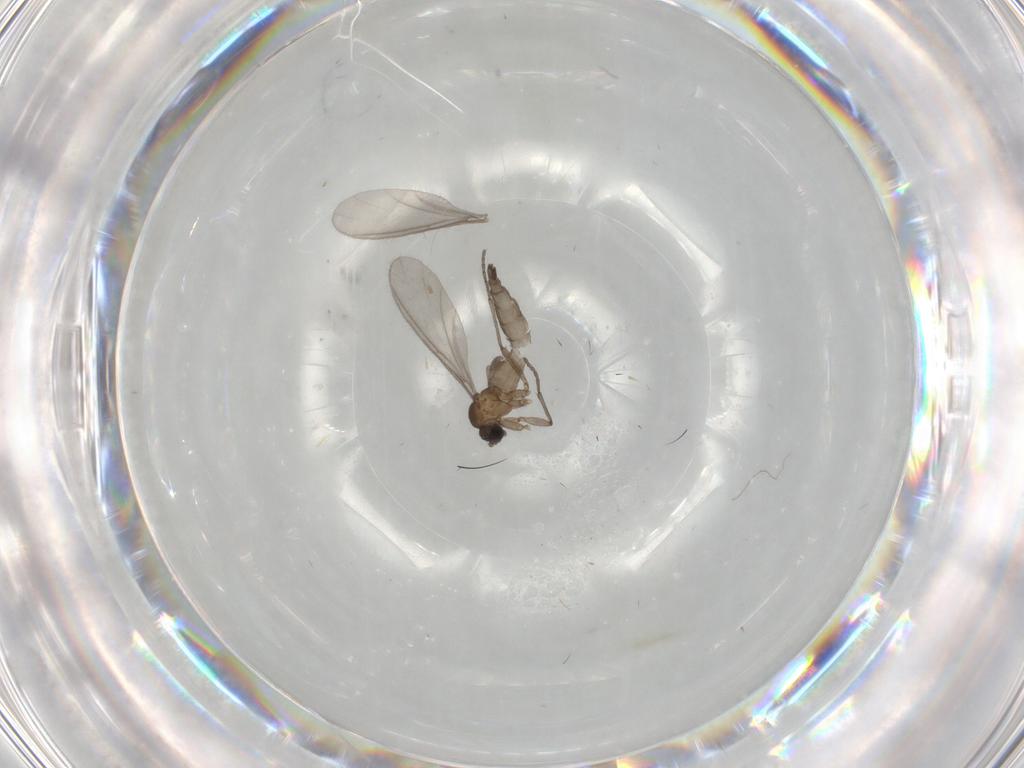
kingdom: Animalia
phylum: Arthropoda
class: Insecta
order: Diptera
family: Sciaridae
